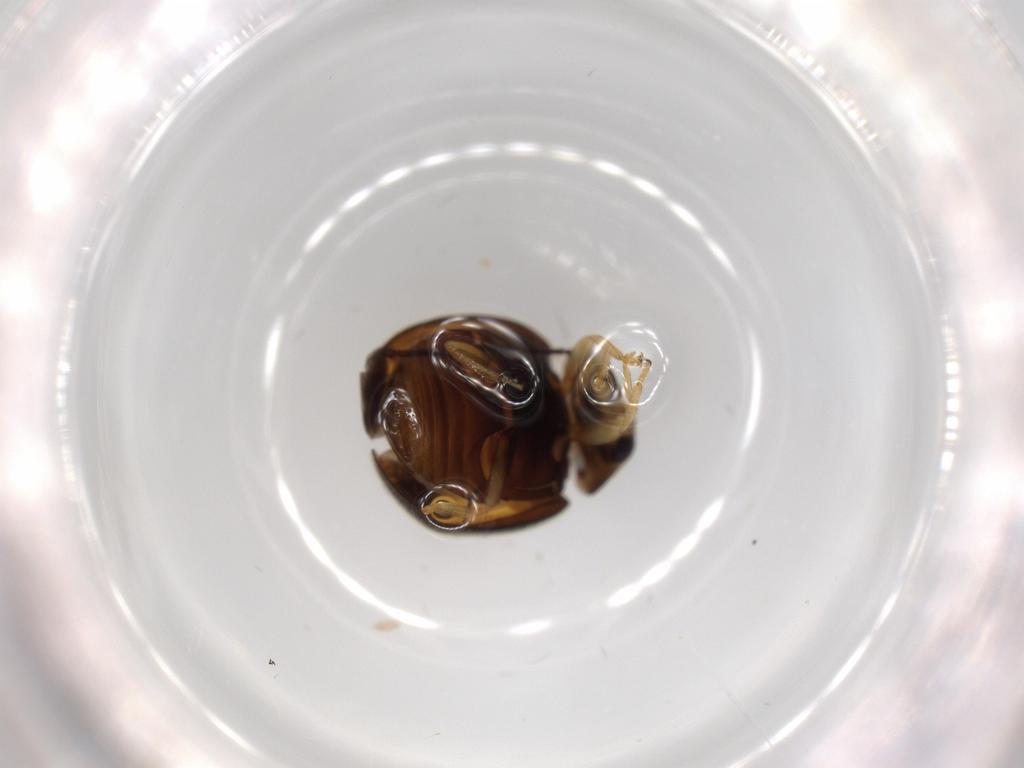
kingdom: Animalia
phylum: Arthropoda
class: Insecta
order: Coleoptera
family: Coccinellidae
